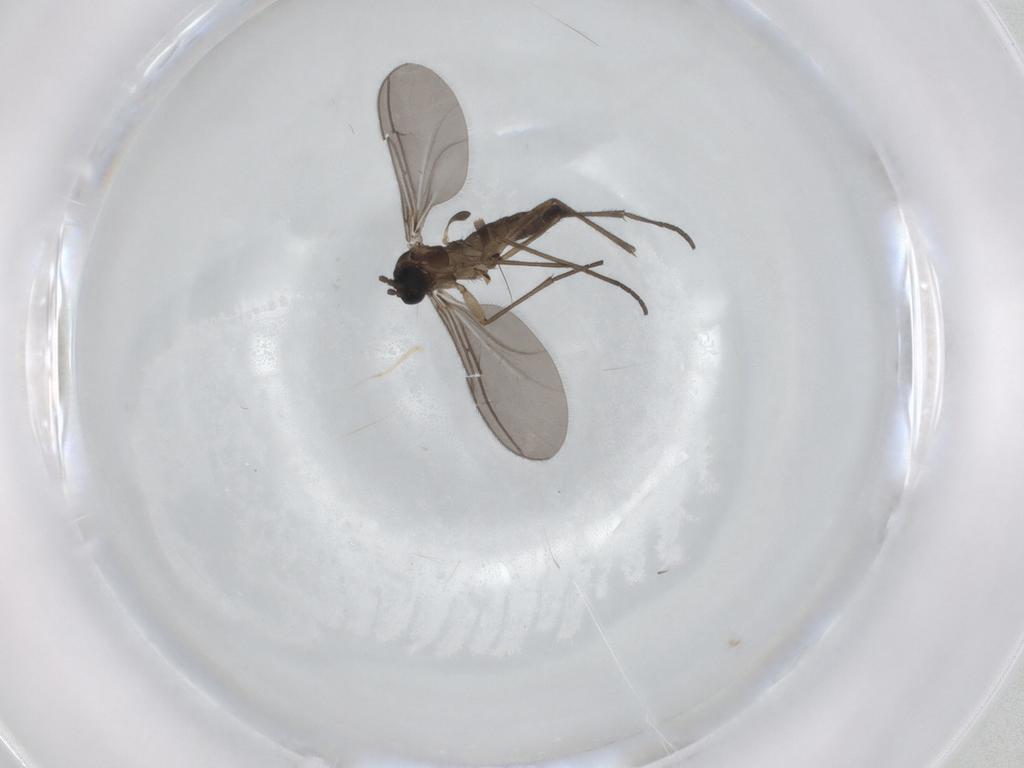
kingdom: Animalia
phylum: Arthropoda
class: Insecta
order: Diptera
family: Sciaridae
